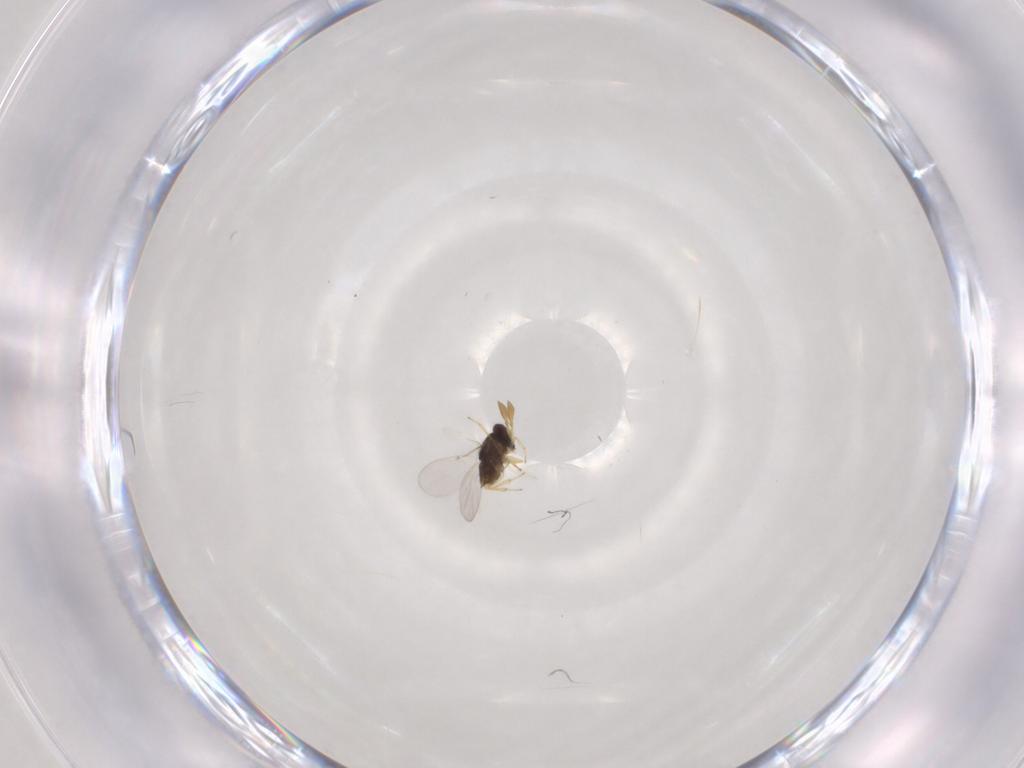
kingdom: Animalia
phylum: Arthropoda
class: Insecta
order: Hymenoptera
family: Encyrtidae
